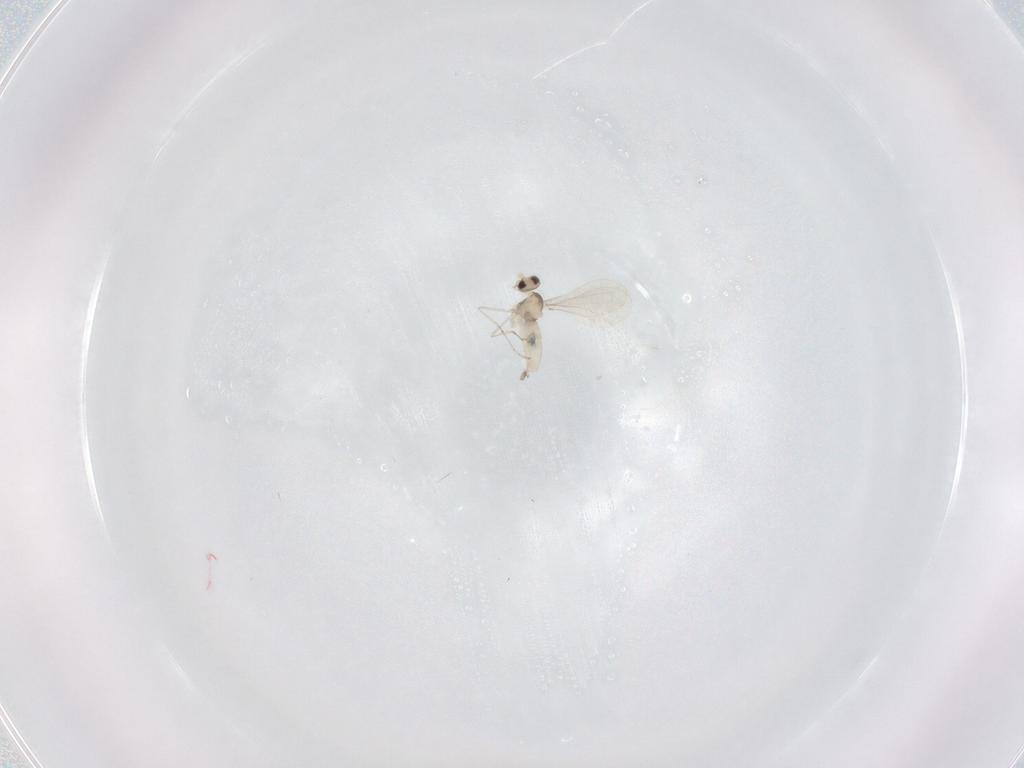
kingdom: Animalia
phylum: Arthropoda
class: Insecta
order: Diptera
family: Cecidomyiidae
